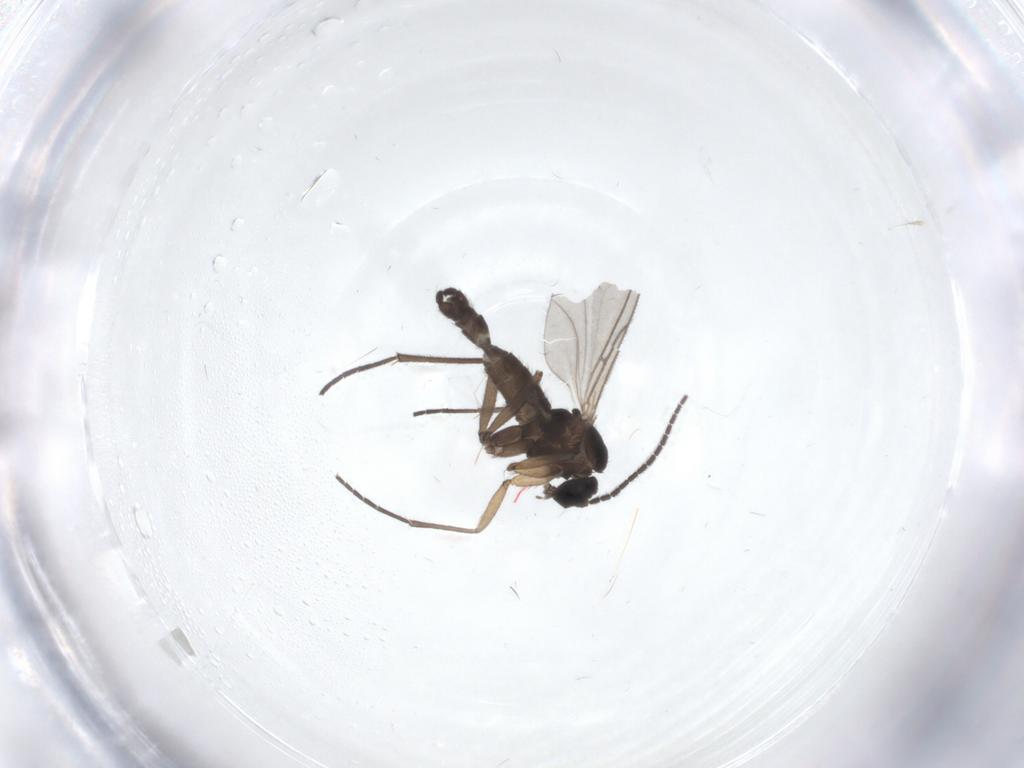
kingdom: Animalia
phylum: Arthropoda
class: Insecta
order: Diptera
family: Sciaridae
